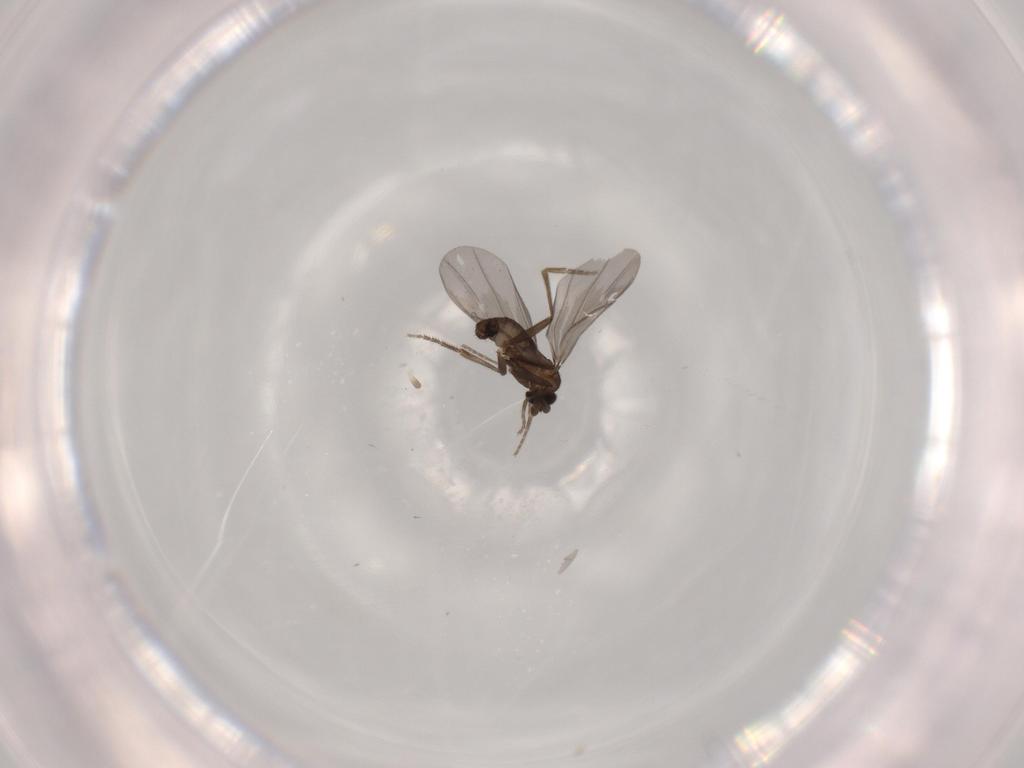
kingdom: Animalia
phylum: Arthropoda
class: Insecta
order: Diptera
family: Phoridae
